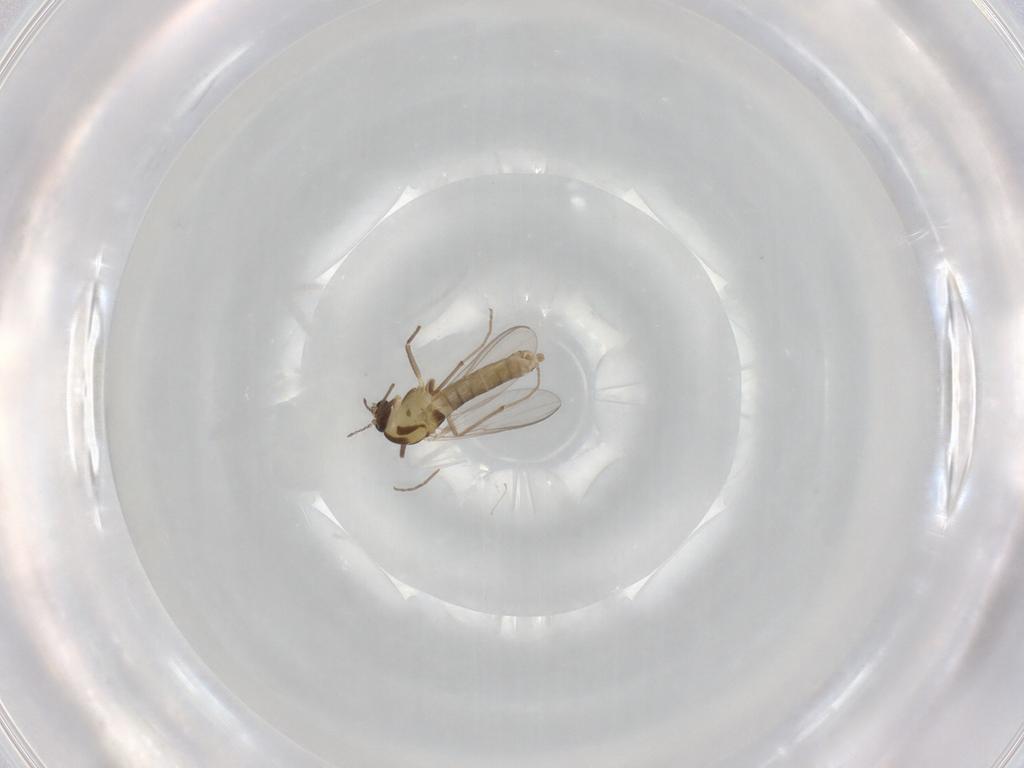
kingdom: Animalia
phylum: Arthropoda
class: Insecta
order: Diptera
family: Chironomidae
